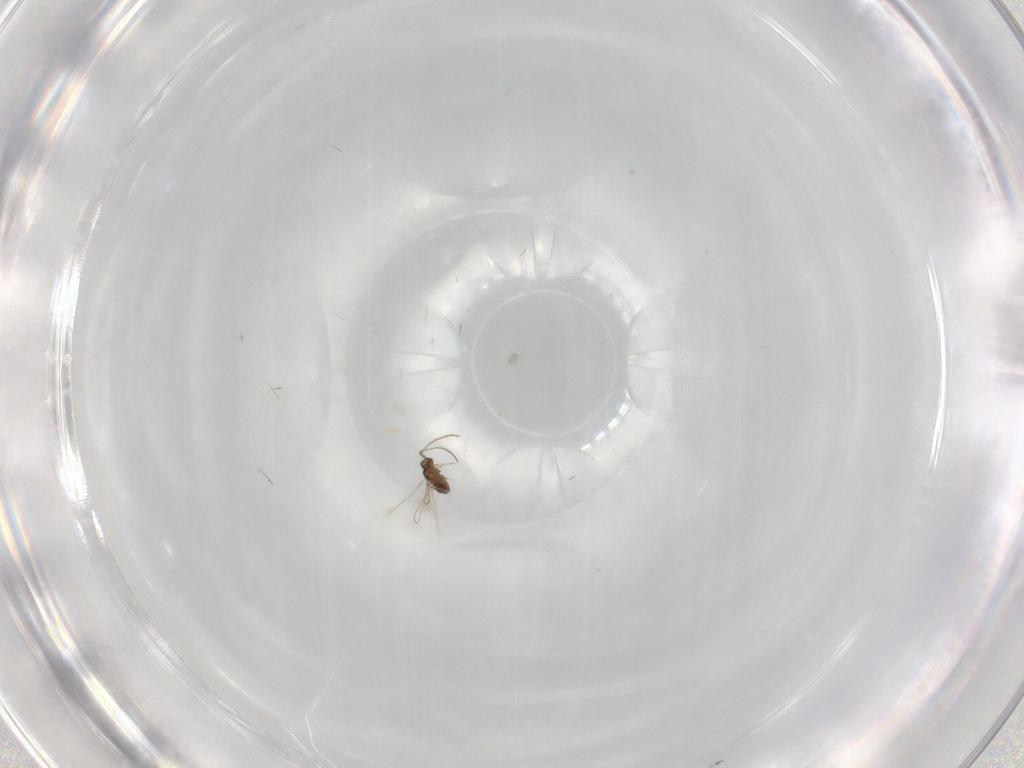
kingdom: Animalia
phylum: Arthropoda
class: Insecta
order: Hymenoptera
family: Mymaridae
